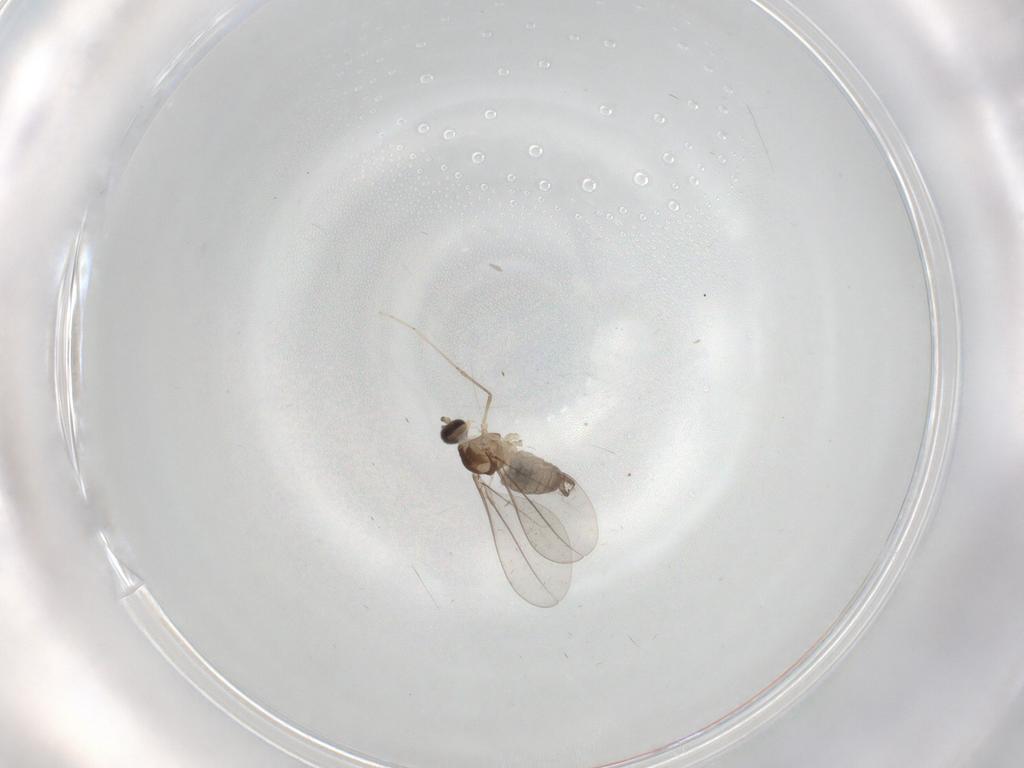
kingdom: Animalia
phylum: Arthropoda
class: Insecta
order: Diptera
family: Cecidomyiidae
